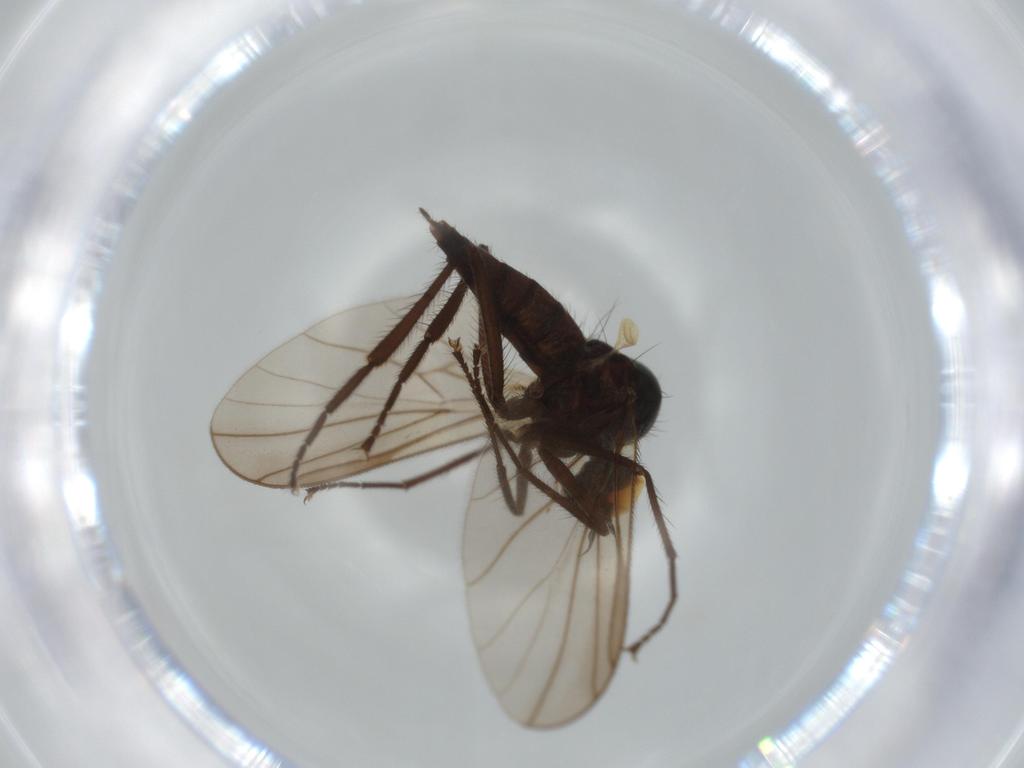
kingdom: Animalia
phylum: Arthropoda
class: Insecta
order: Diptera
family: Hybotidae
